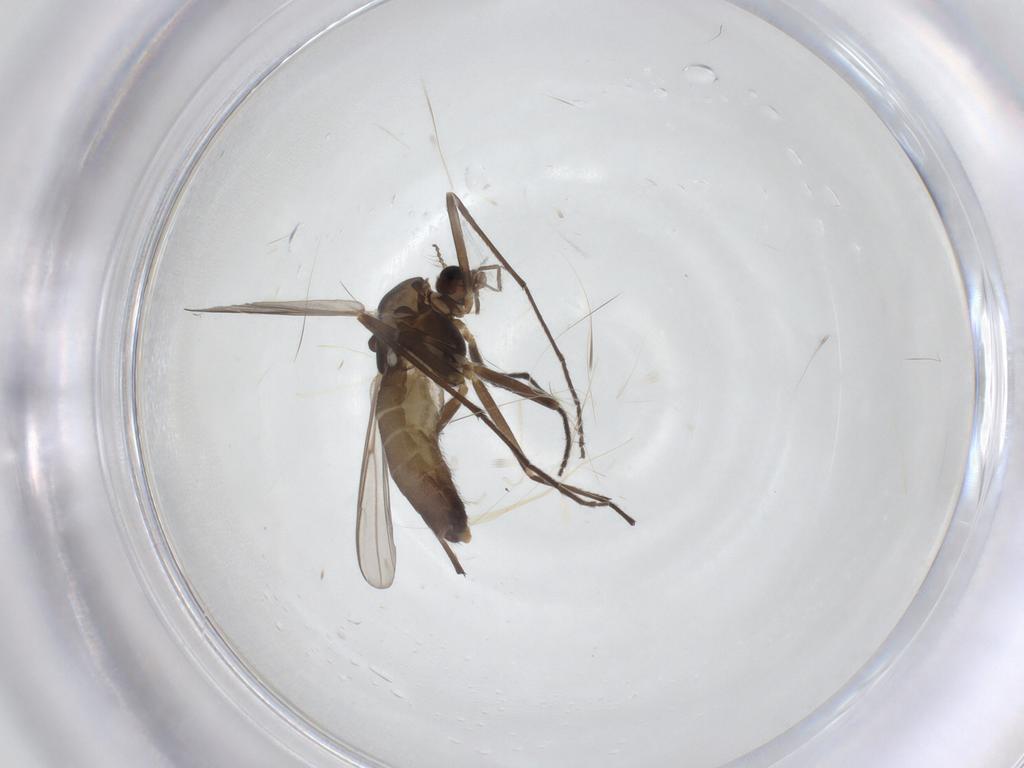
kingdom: Animalia
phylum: Arthropoda
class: Insecta
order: Diptera
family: Chironomidae
